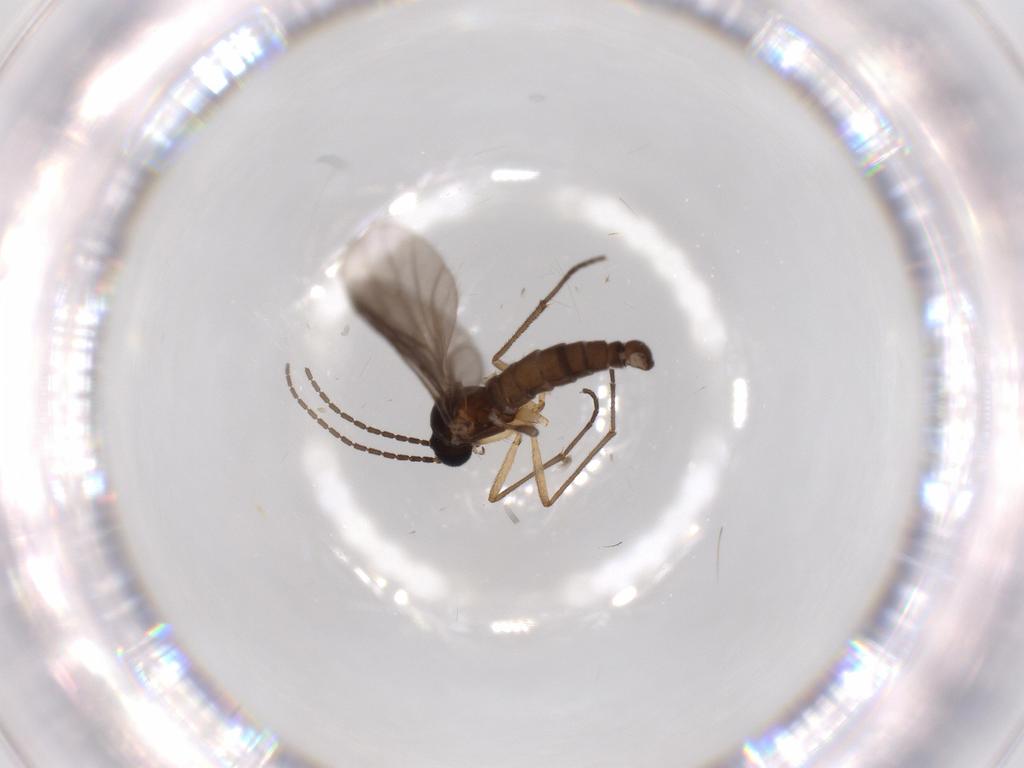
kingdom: Animalia
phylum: Arthropoda
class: Insecta
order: Diptera
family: Sciaridae
